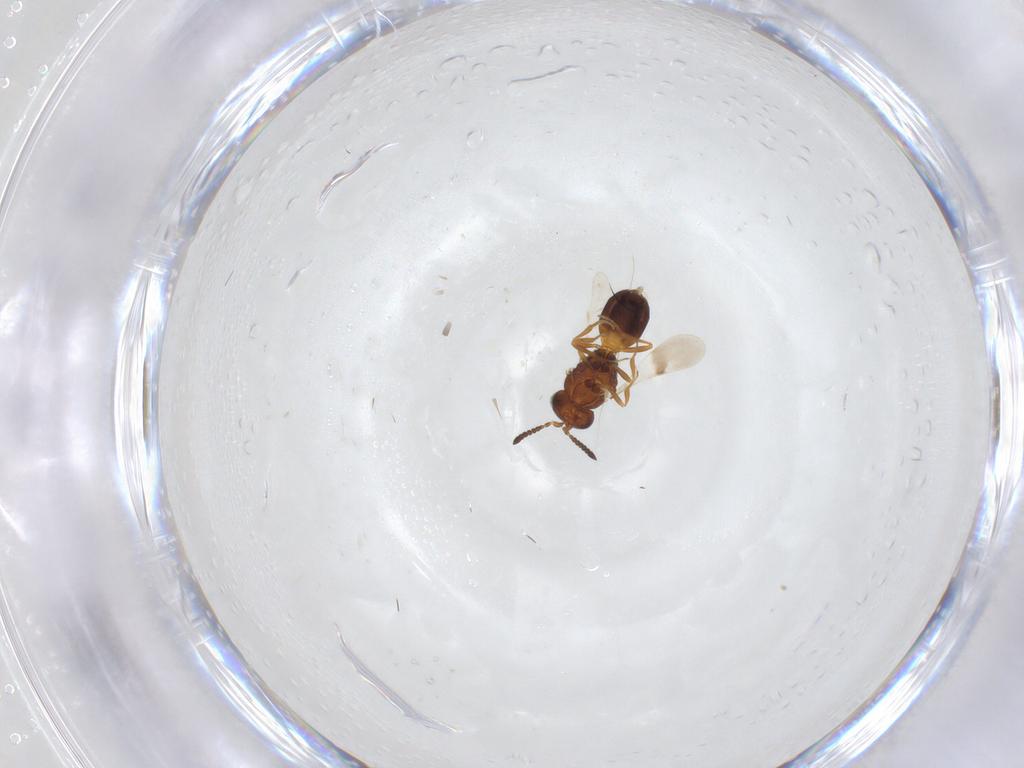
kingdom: Animalia
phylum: Arthropoda
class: Insecta
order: Hymenoptera
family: Scelionidae
